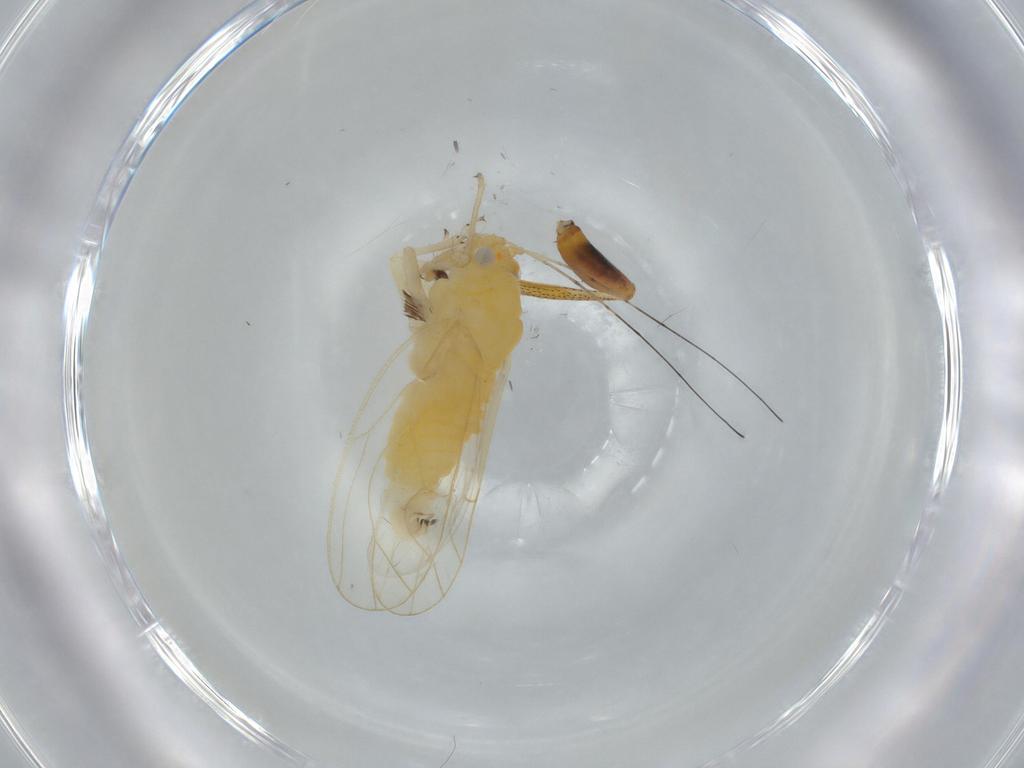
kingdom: Animalia
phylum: Arthropoda
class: Insecta
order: Hemiptera
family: Psyllidae
